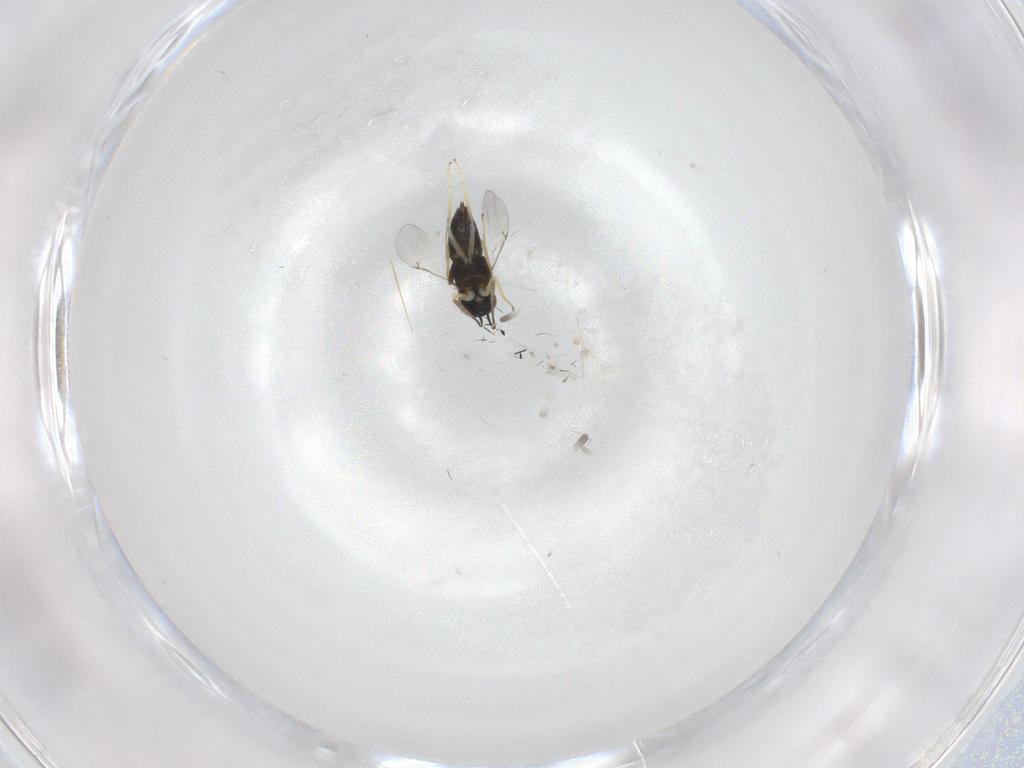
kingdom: Animalia
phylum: Arthropoda
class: Insecta
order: Hymenoptera
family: Encyrtidae
